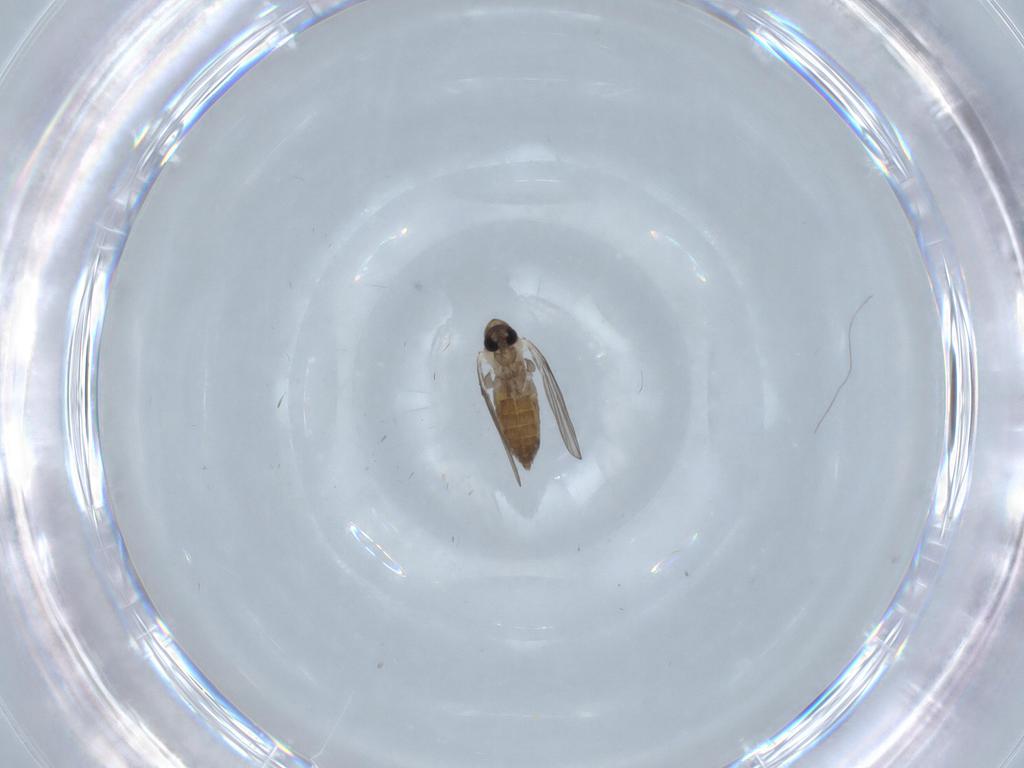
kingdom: Animalia
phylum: Arthropoda
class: Insecta
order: Diptera
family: Psychodidae
